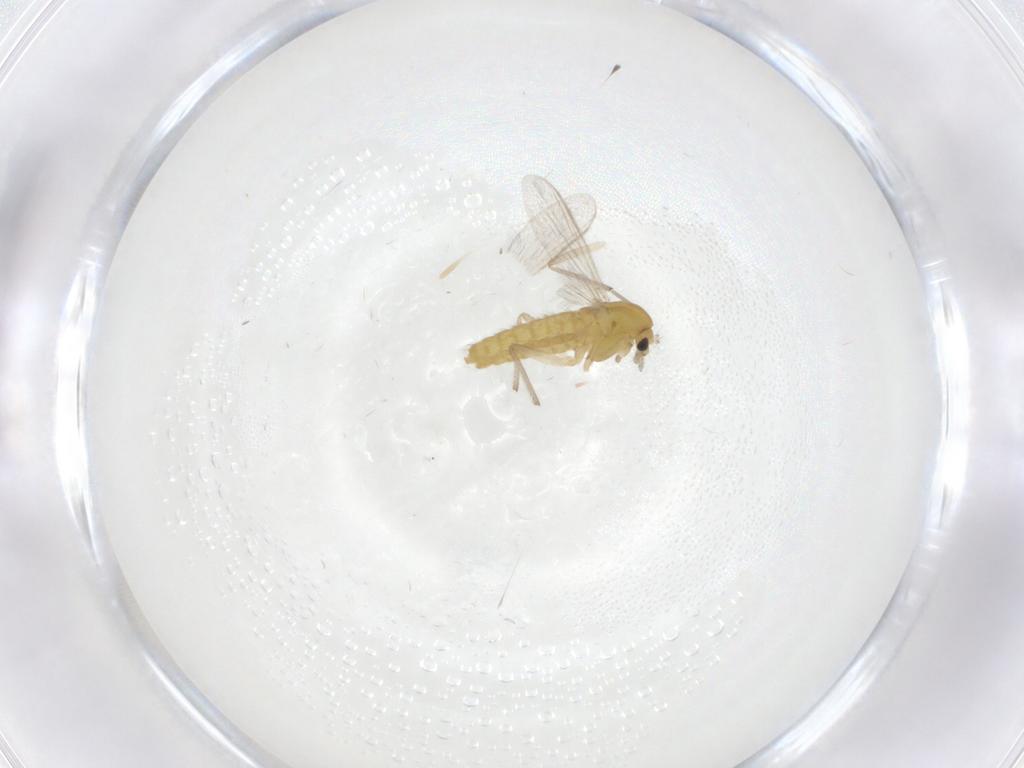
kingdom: Animalia
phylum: Arthropoda
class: Insecta
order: Diptera
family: Chironomidae
